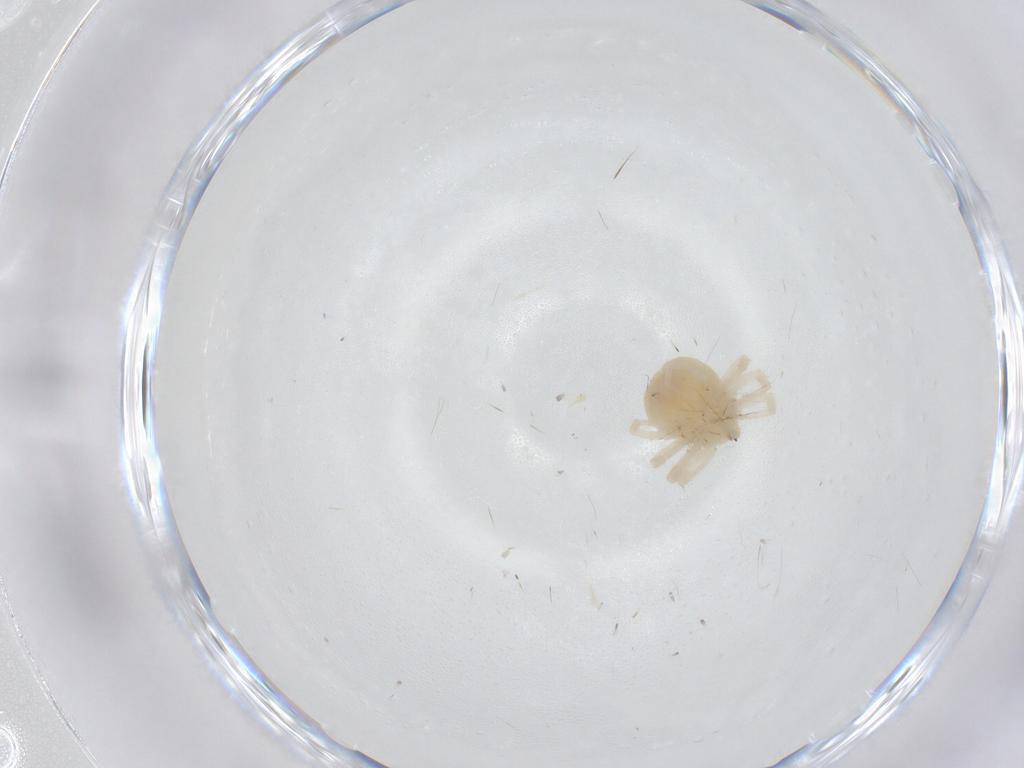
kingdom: Animalia
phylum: Arthropoda
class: Arachnida
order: Trombidiformes
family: Anystidae
